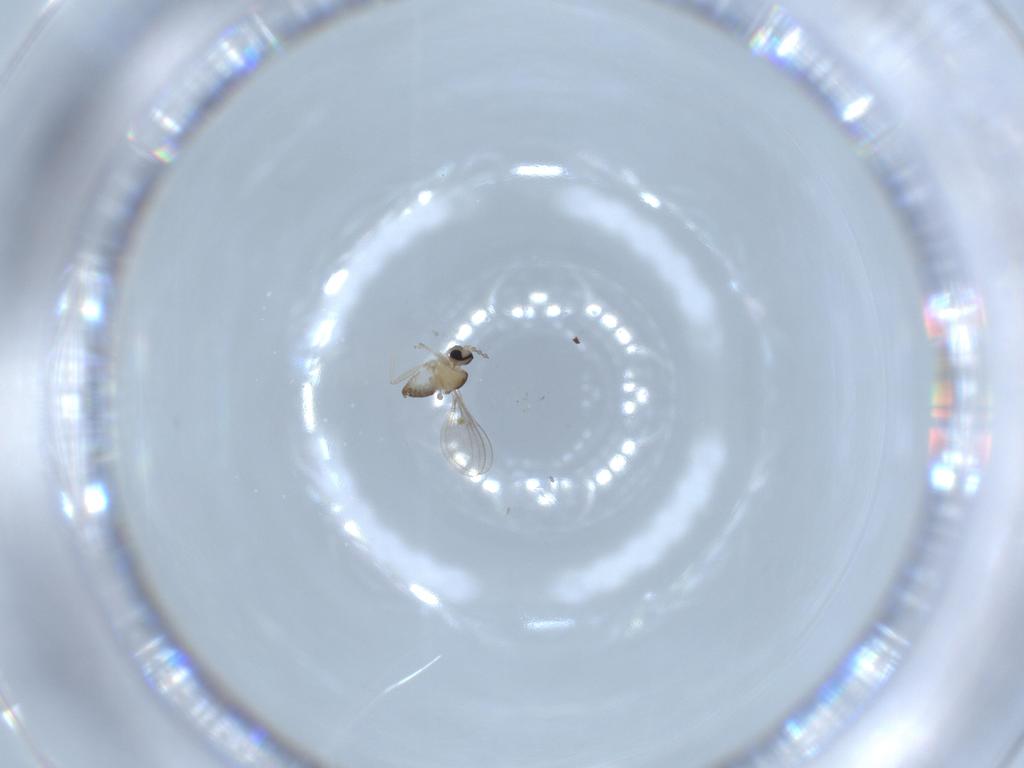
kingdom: Animalia
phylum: Arthropoda
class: Insecta
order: Diptera
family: Cecidomyiidae
